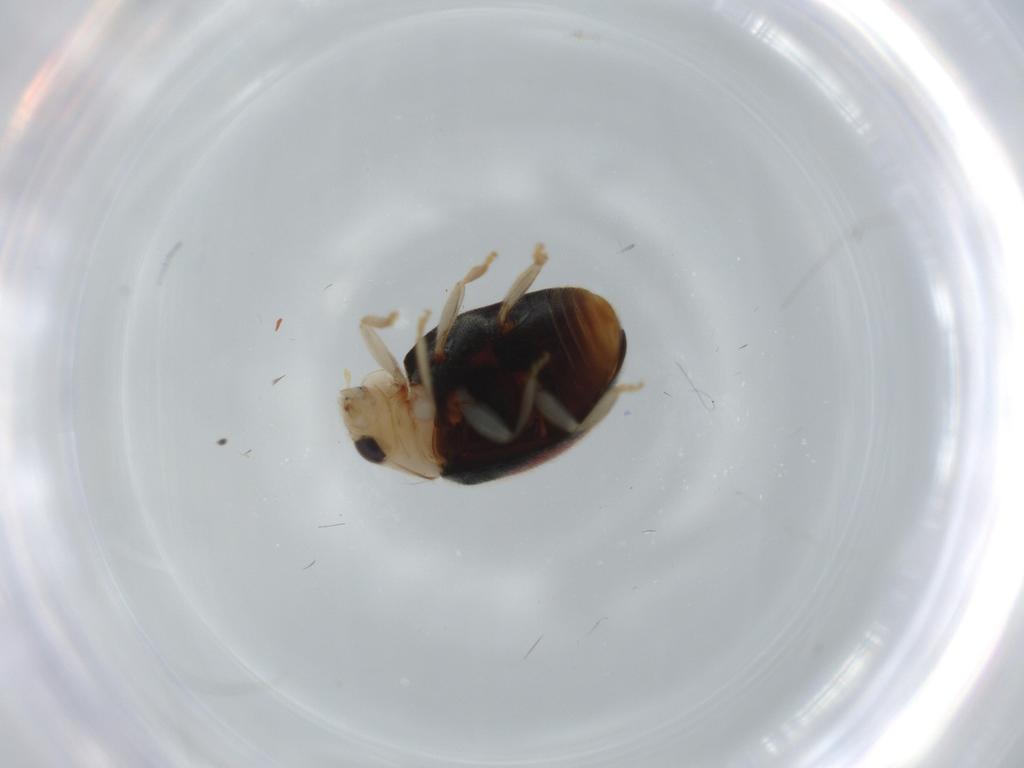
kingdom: Animalia
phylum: Arthropoda
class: Insecta
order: Coleoptera
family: Coccinellidae
